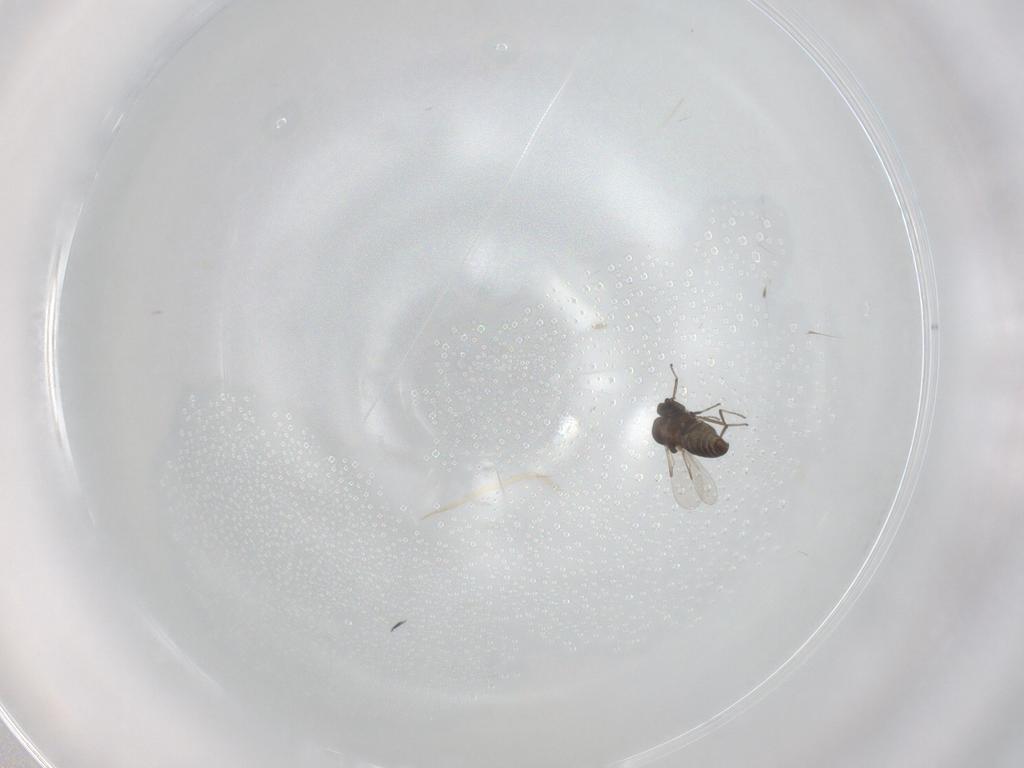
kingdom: Animalia
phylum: Arthropoda
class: Insecta
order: Diptera
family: Ceratopogonidae
